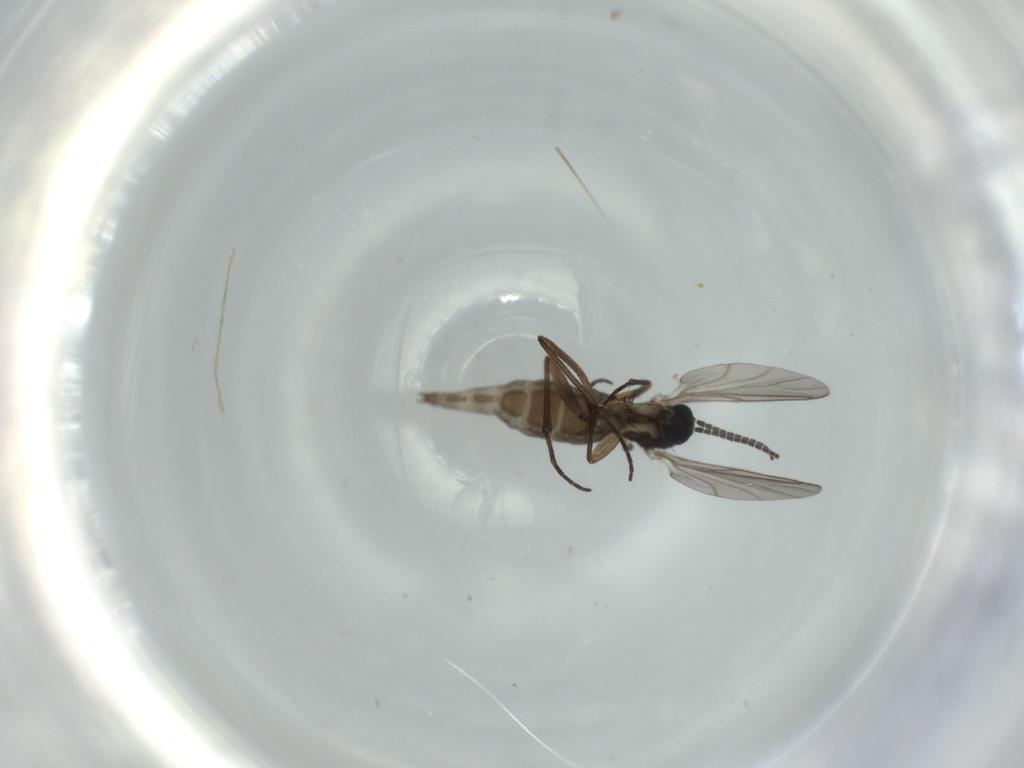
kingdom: Animalia
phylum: Arthropoda
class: Insecta
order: Diptera
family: Sciaridae
